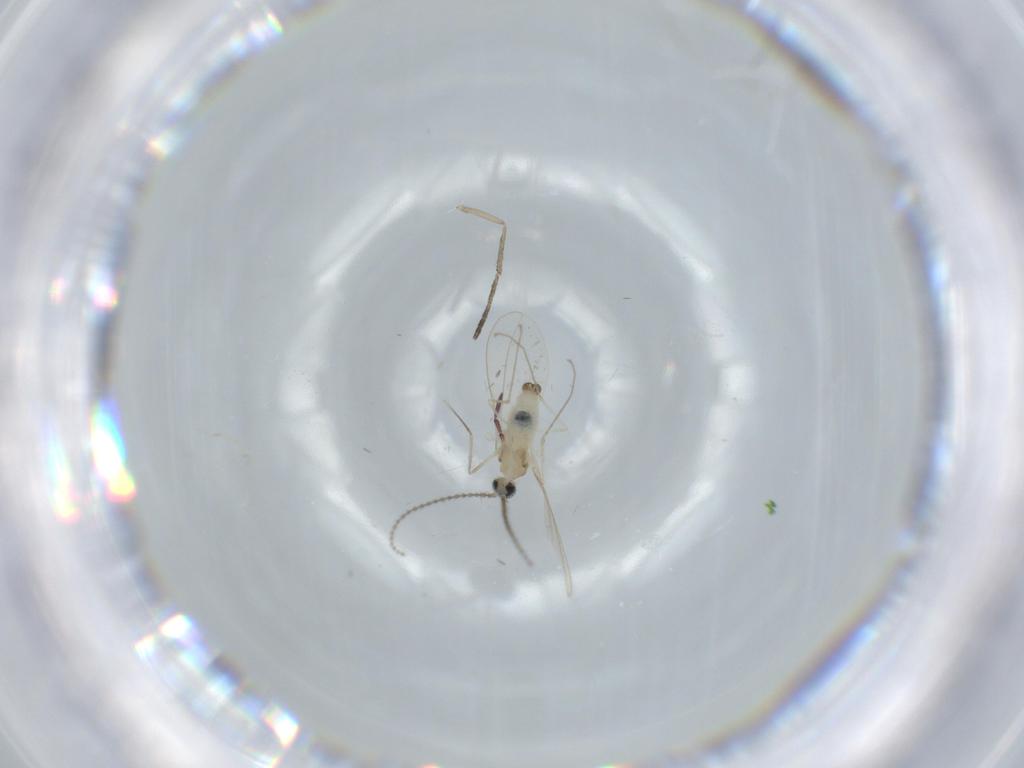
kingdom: Animalia
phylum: Arthropoda
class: Insecta
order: Diptera
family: Cecidomyiidae
